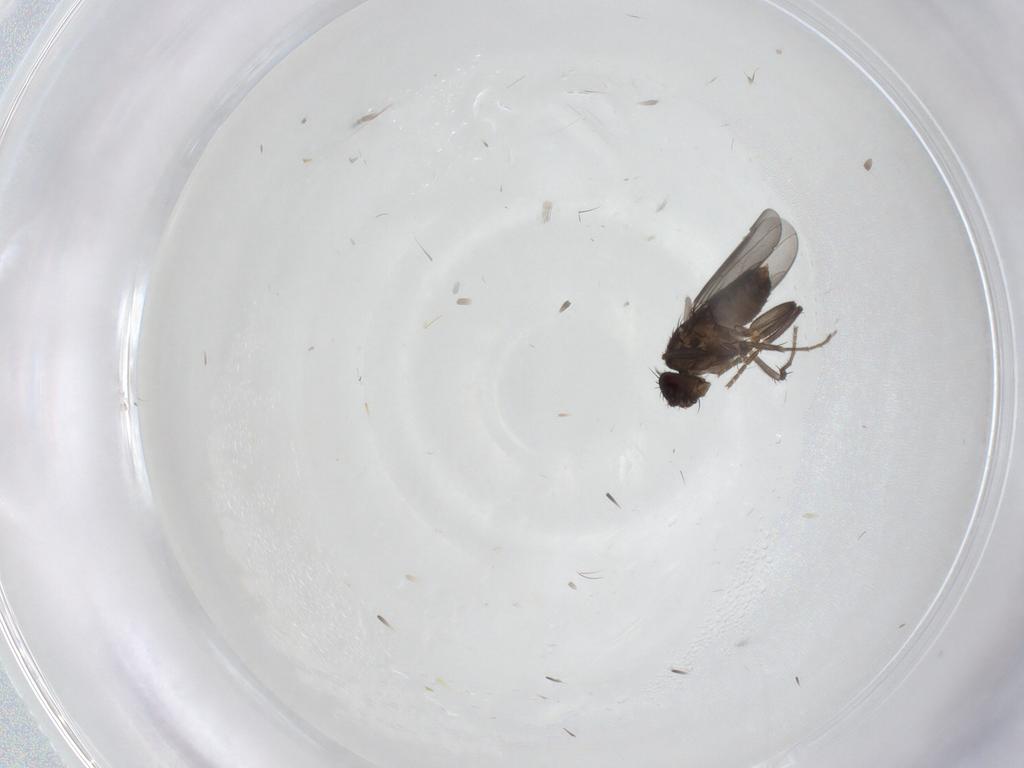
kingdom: Animalia
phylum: Arthropoda
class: Insecta
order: Diptera
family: Sphaeroceridae
